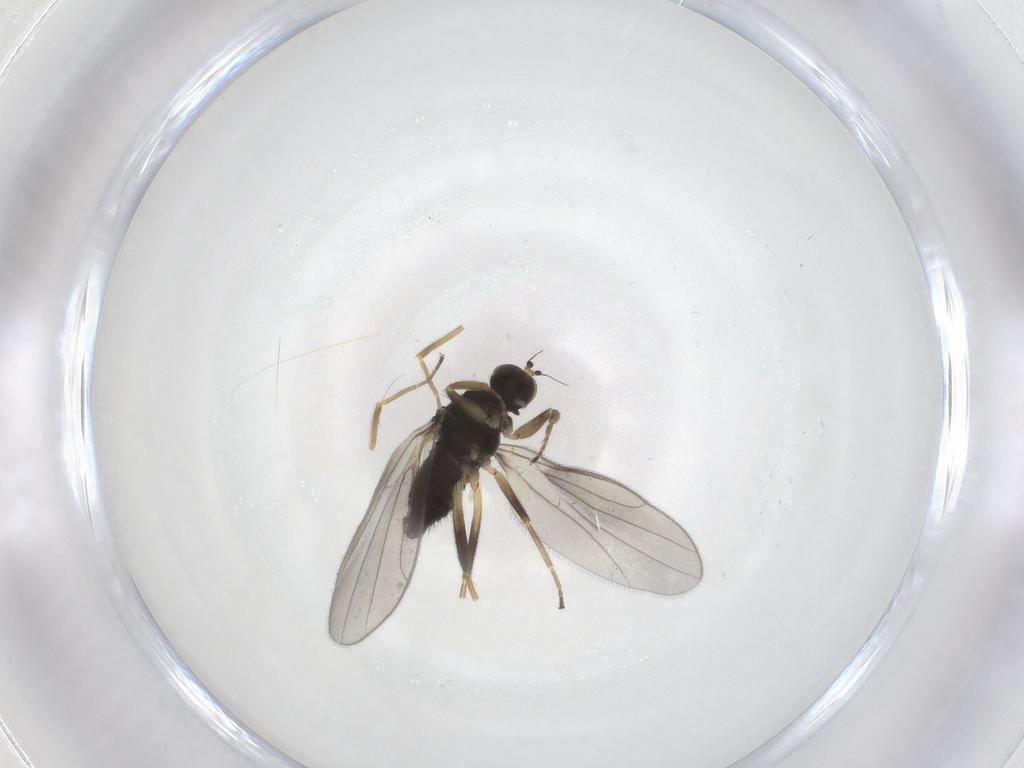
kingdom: Animalia
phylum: Arthropoda
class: Insecta
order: Diptera
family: Hybotidae
